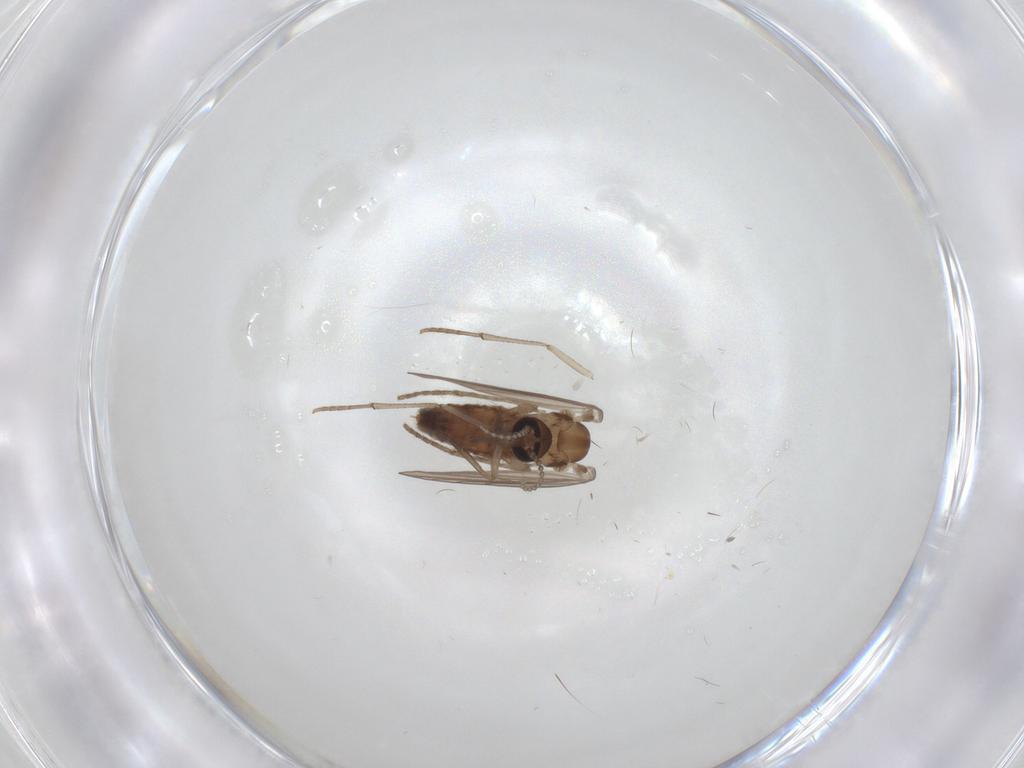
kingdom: Animalia
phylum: Arthropoda
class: Insecta
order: Diptera
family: Psychodidae
